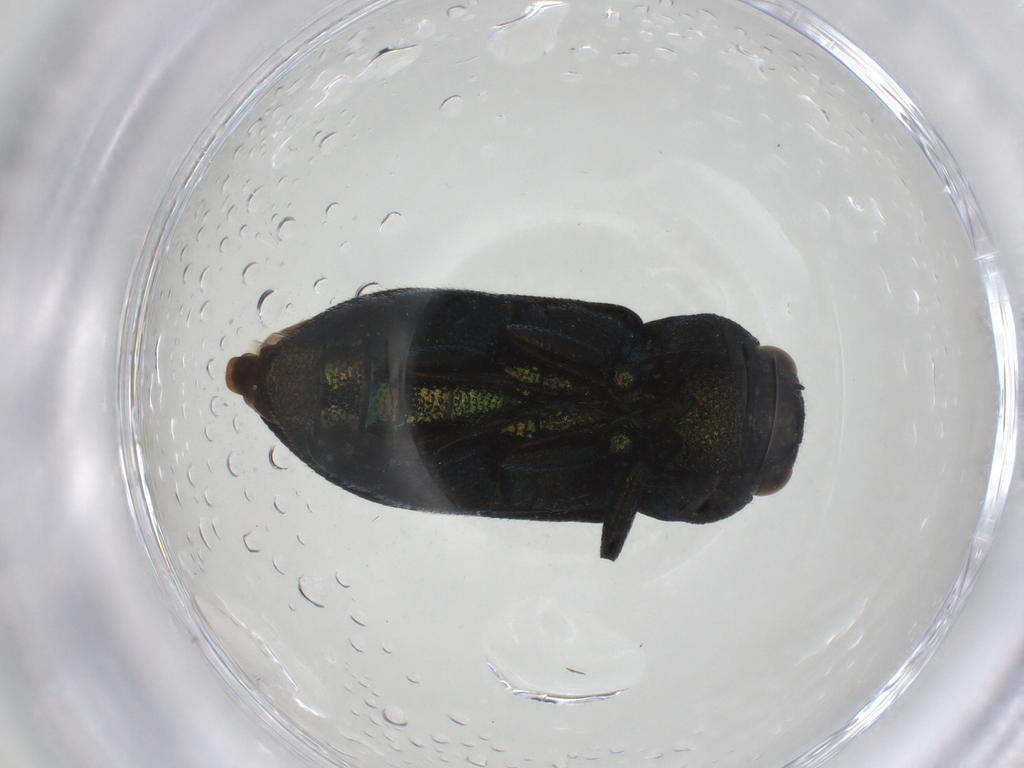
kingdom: Animalia
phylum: Arthropoda
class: Insecta
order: Coleoptera
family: Buprestidae
